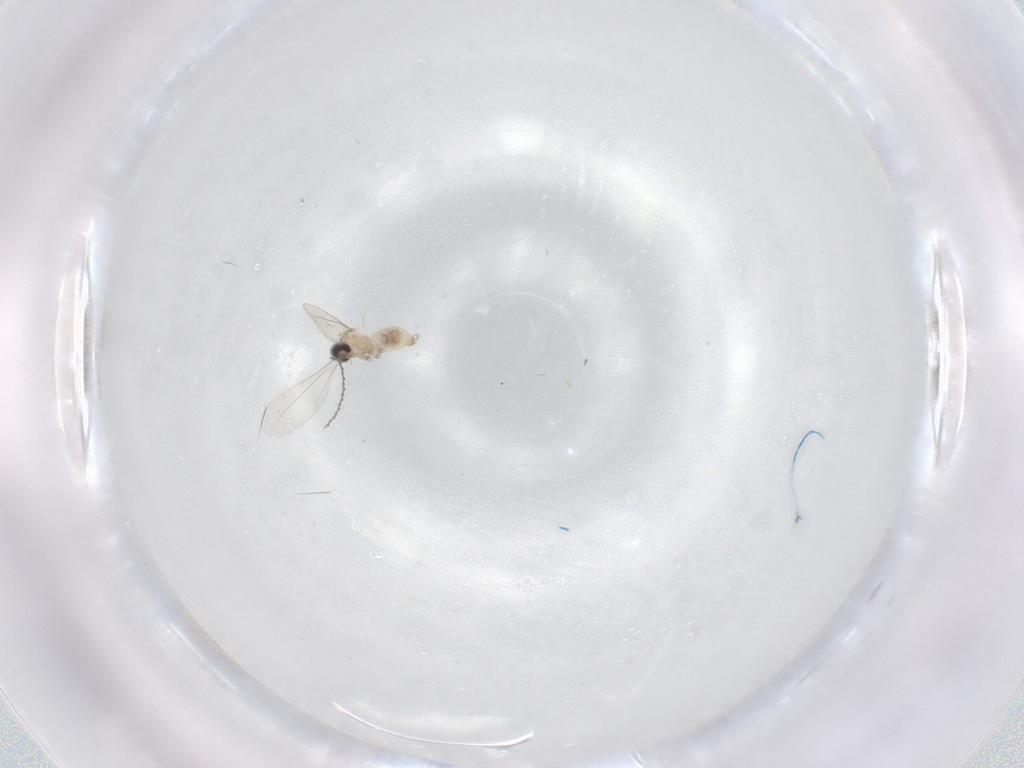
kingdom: Animalia
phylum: Arthropoda
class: Insecta
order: Diptera
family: Cecidomyiidae
